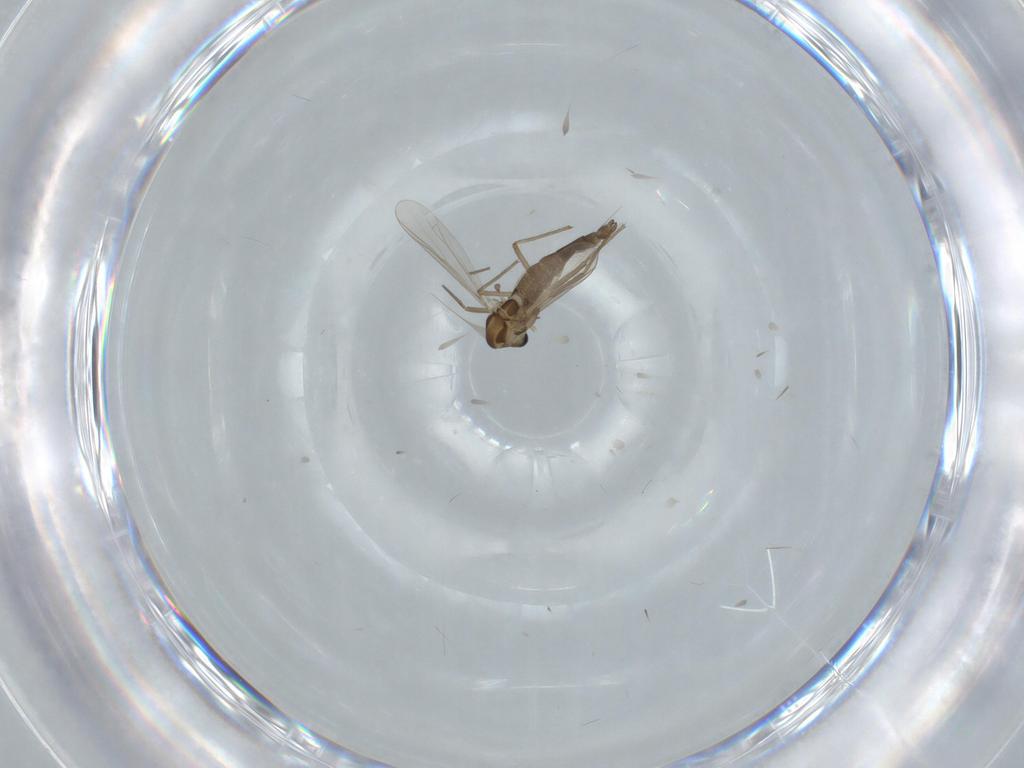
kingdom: Animalia
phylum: Arthropoda
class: Insecta
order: Diptera
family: Chironomidae
